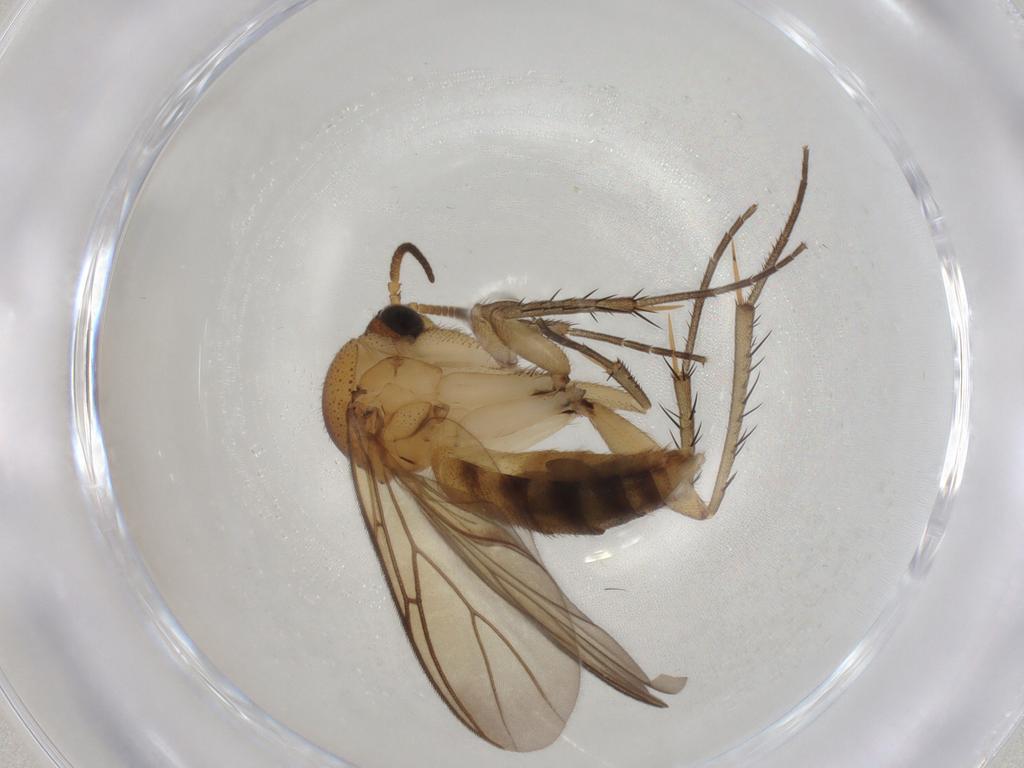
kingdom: Animalia
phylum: Arthropoda
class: Insecta
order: Diptera
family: Mycetophilidae
